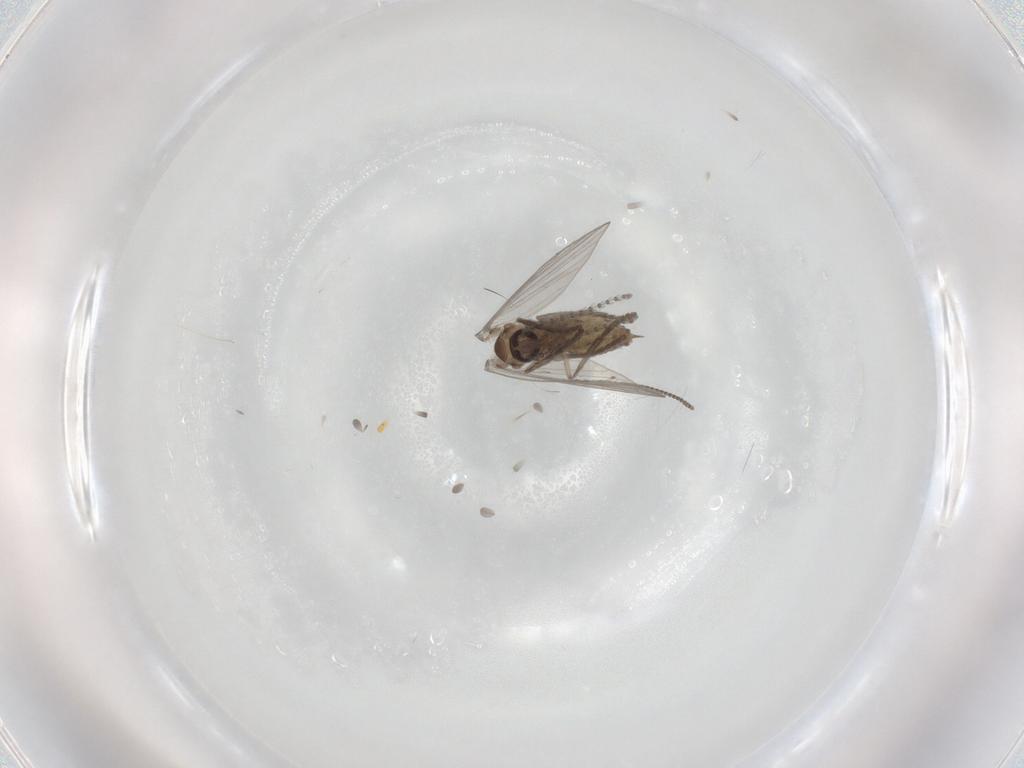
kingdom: Animalia
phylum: Arthropoda
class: Insecta
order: Diptera
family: Psychodidae
